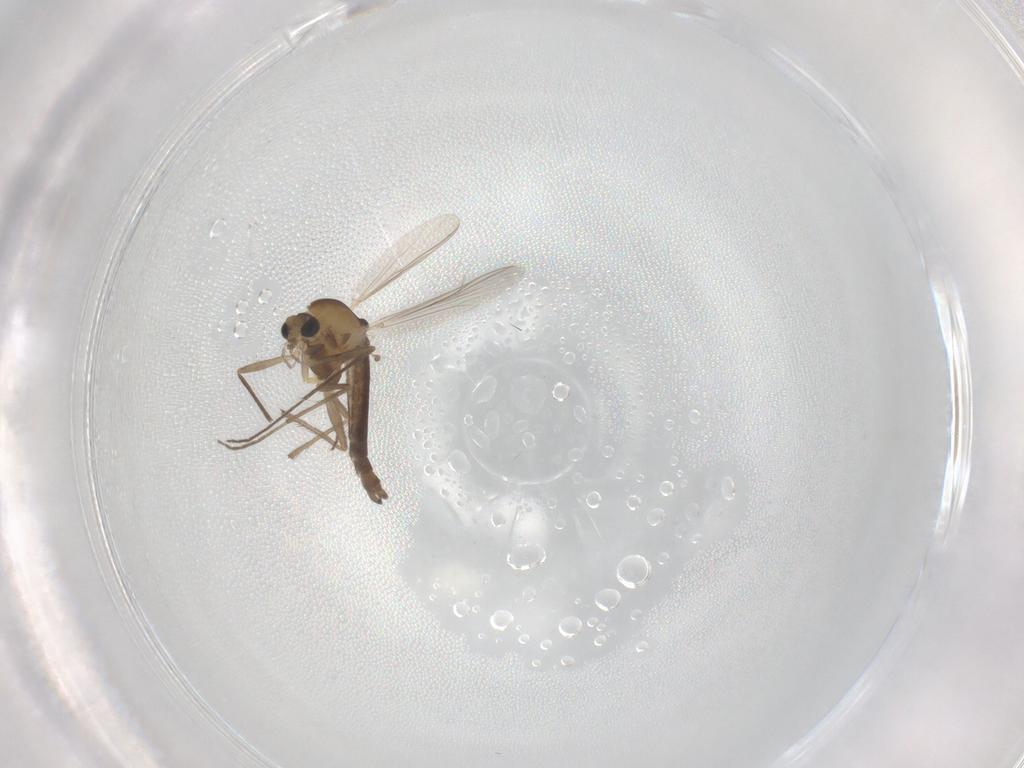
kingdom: Animalia
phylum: Arthropoda
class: Insecta
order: Diptera
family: Chironomidae
